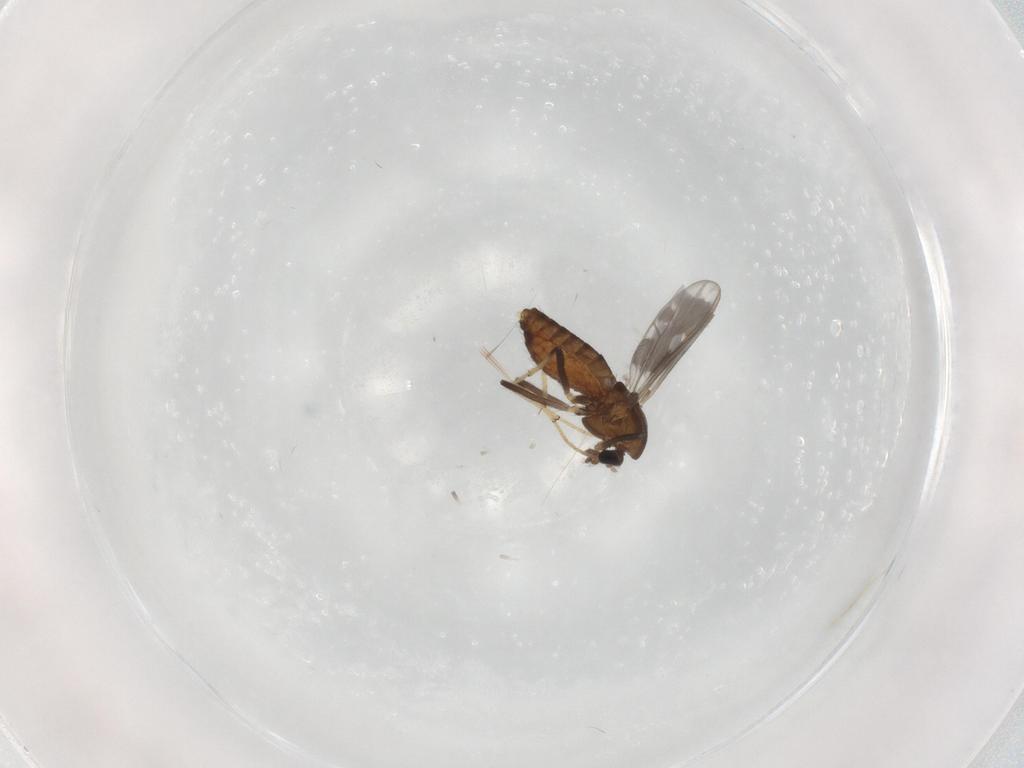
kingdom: Animalia
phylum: Arthropoda
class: Insecta
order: Diptera
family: Chironomidae
